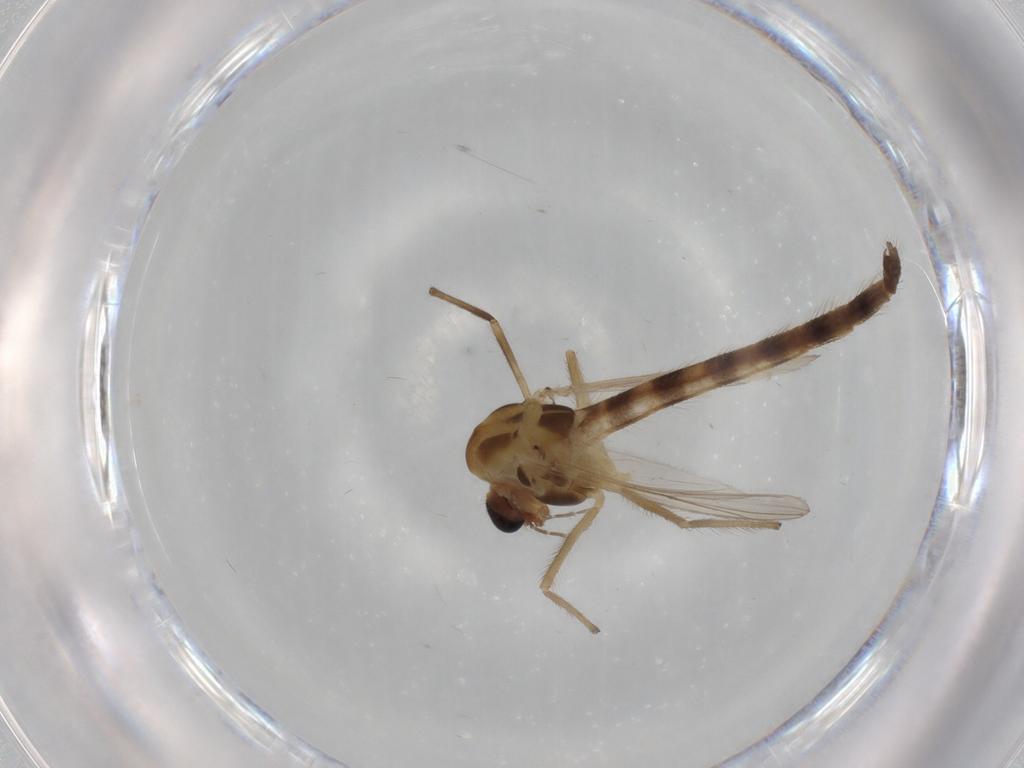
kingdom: Animalia
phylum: Arthropoda
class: Insecta
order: Diptera
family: Chironomidae
